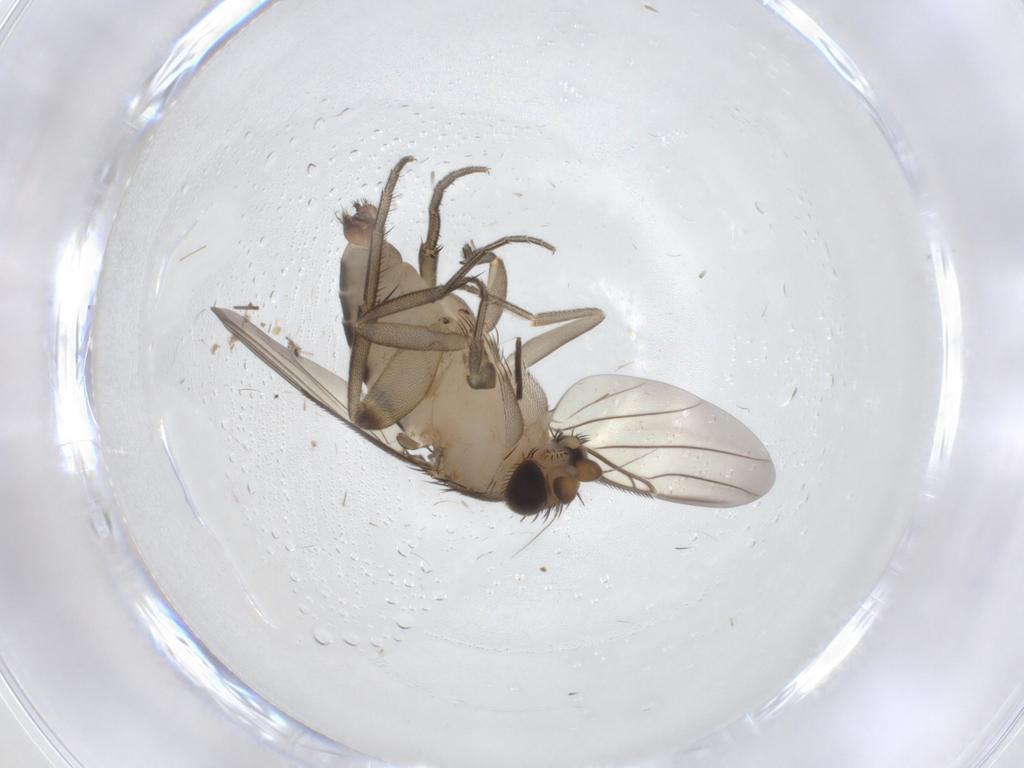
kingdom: Animalia
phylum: Arthropoda
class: Insecta
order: Diptera
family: Phoridae
